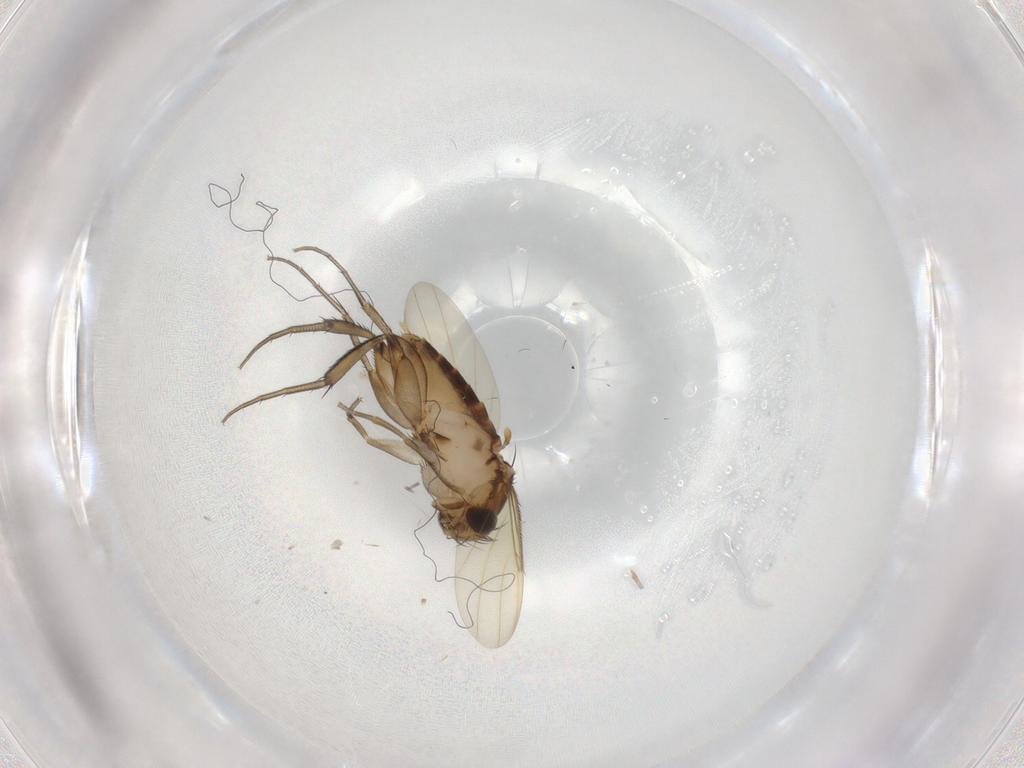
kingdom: Animalia
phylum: Arthropoda
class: Insecta
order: Diptera
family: Phoridae
